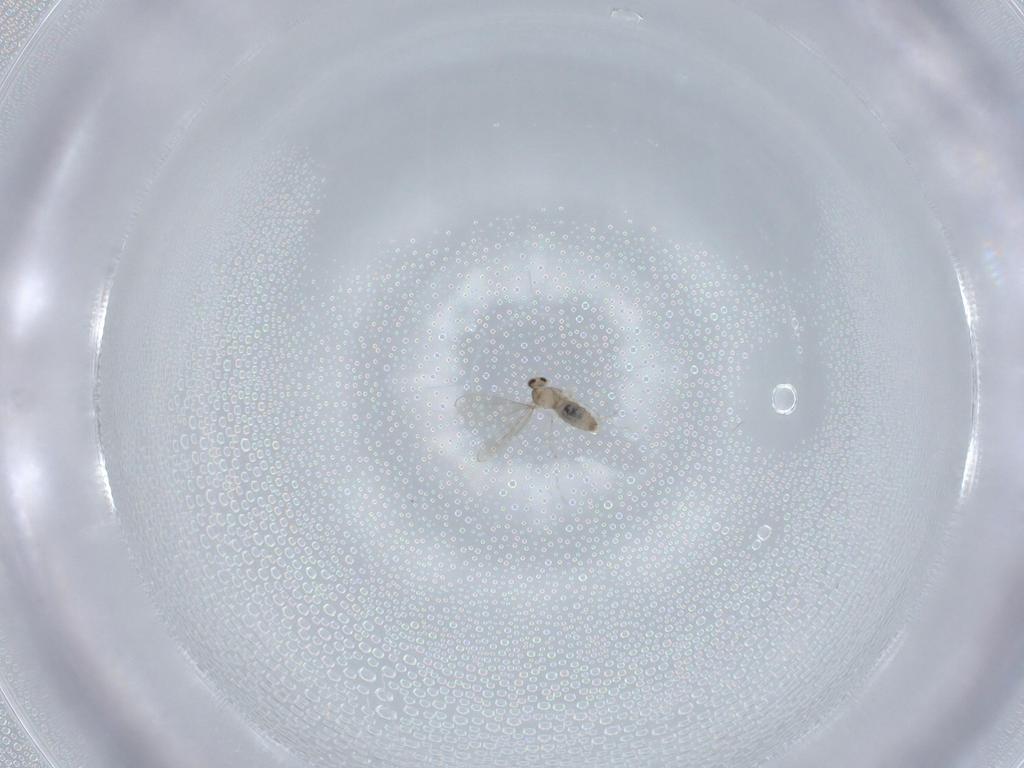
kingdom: Animalia
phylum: Arthropoda
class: Insecta
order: Diptera
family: Cecidomyiidae
